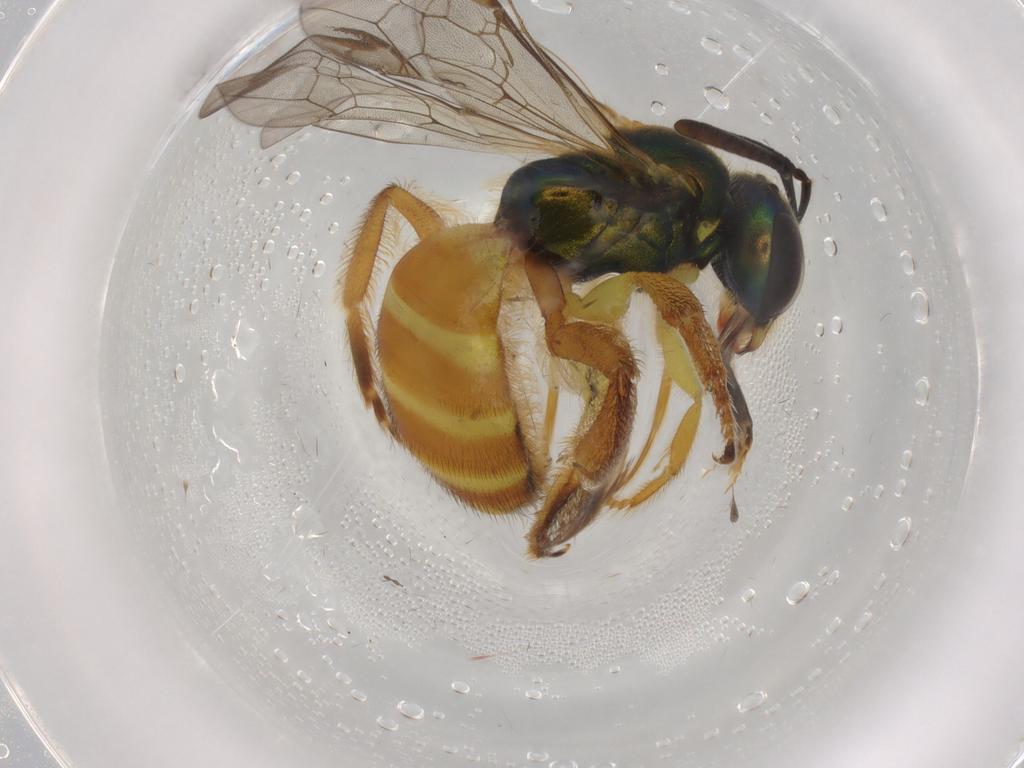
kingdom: Animalia
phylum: Arthropoda
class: Insecta
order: Hymenoptera
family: Halictidae
